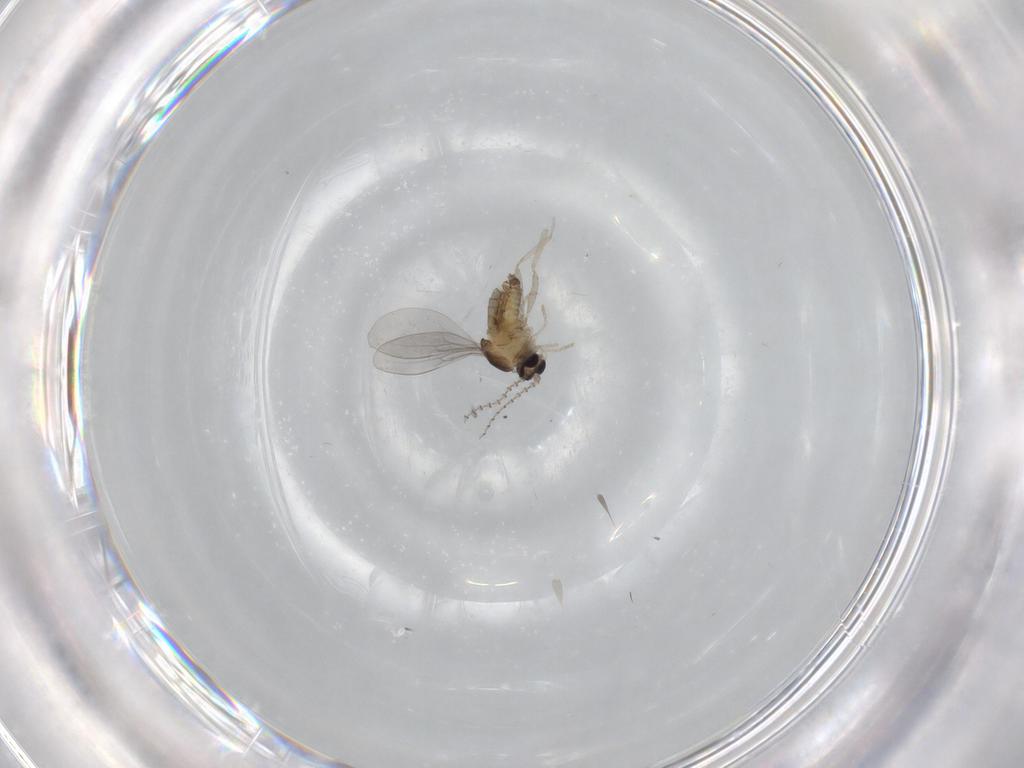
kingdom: Animalia
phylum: Arthropoda
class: Insecta
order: Diptera
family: Cecidomyiidae
